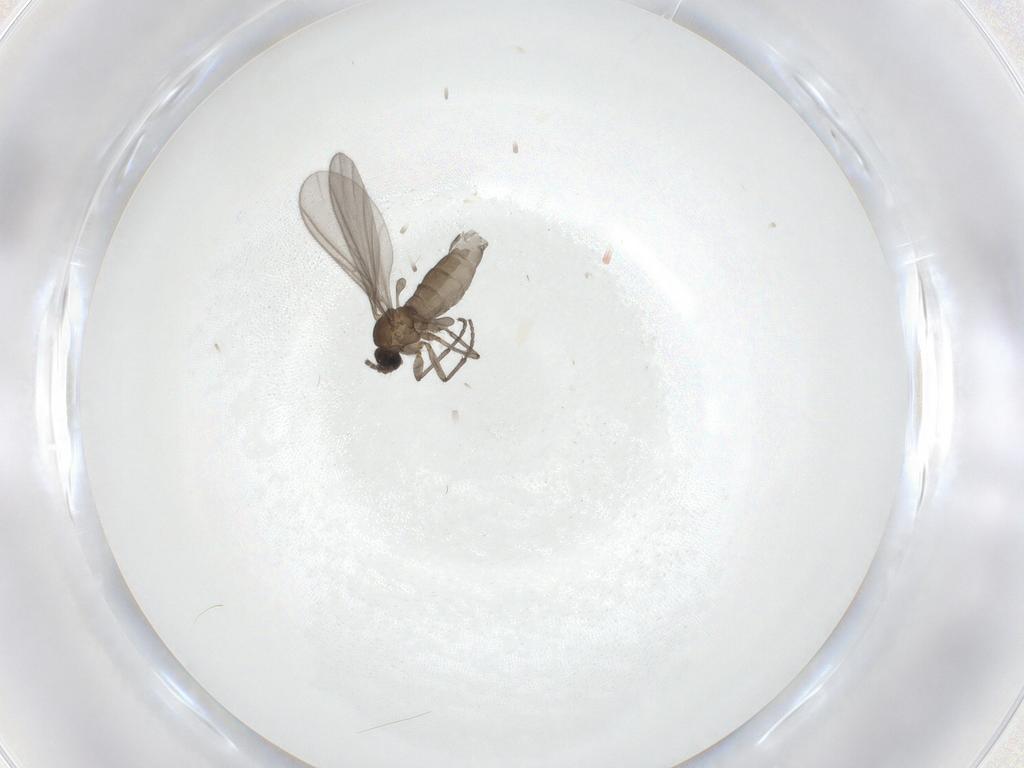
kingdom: Animalia
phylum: Arthropoda
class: Insecta
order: Diptera
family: Sciaridae
